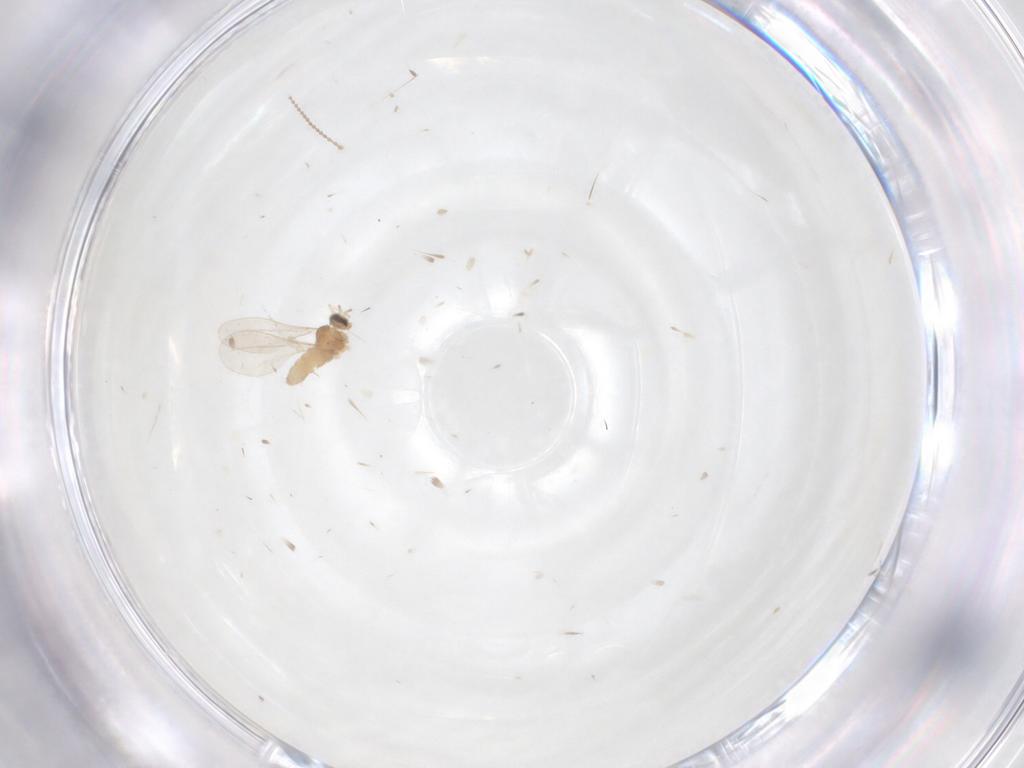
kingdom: Animalia
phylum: Arthropoda
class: Insecta
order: Diptera
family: Cecidomyiidae
